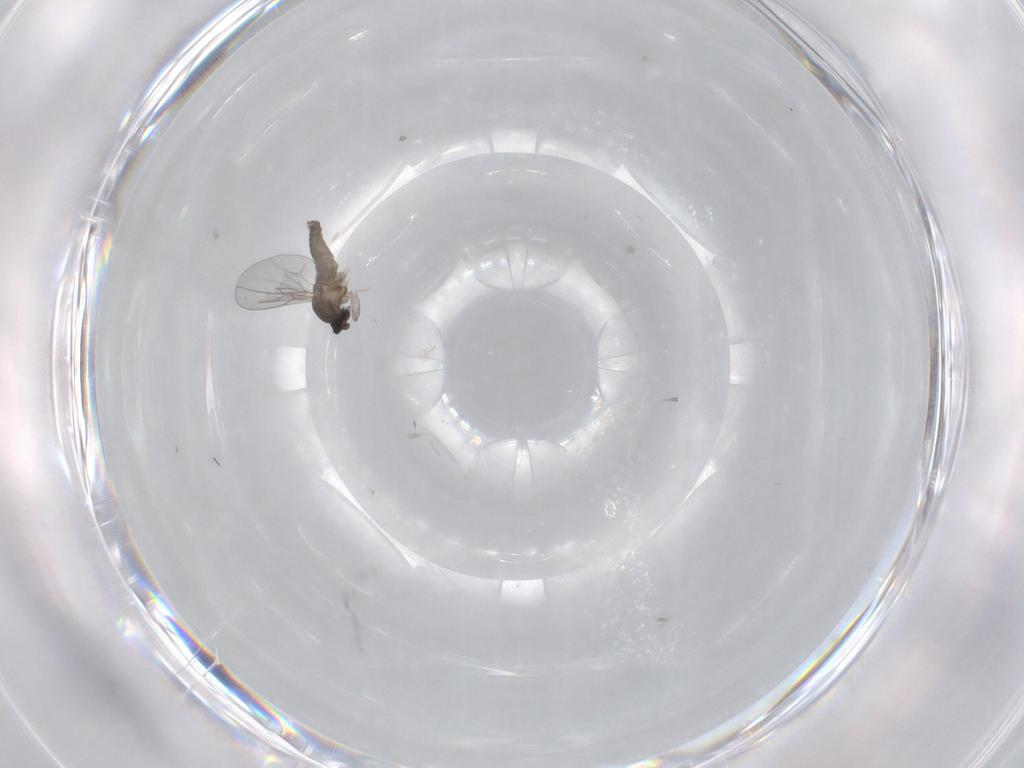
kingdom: Animalia
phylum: Arthropoda
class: Insecta
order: Diptera
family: Cecidomyiidae
